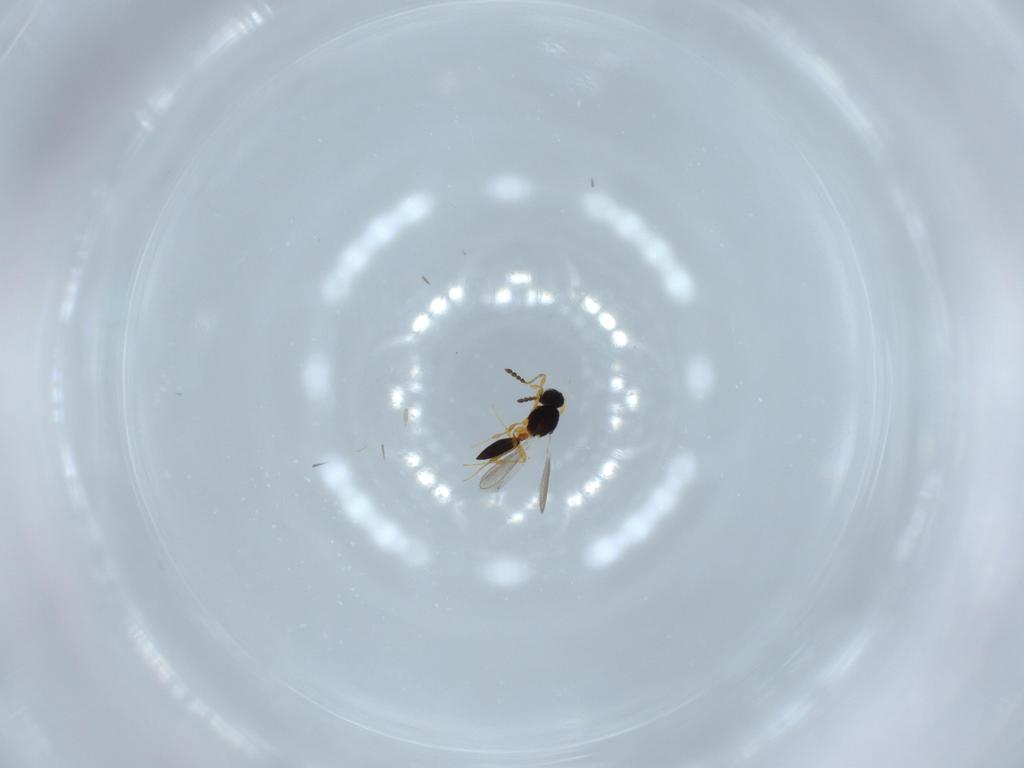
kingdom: Animalia
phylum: Arthropoda
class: Insecta
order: Hymenoptera
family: Platygastridae
